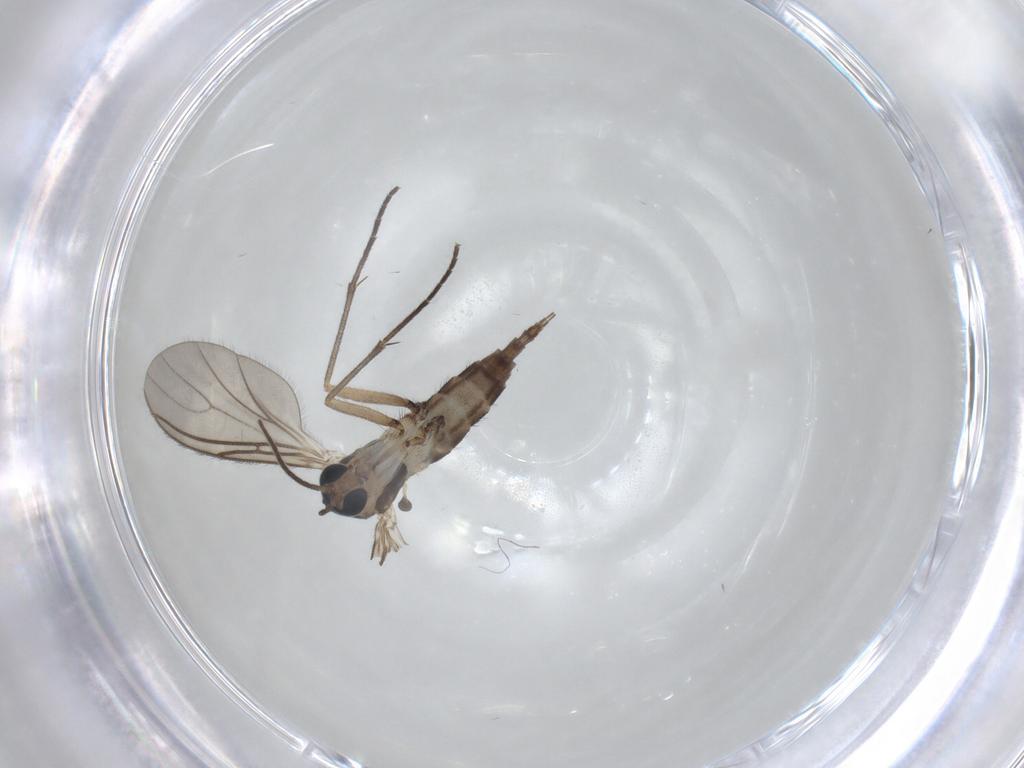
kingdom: Animalia
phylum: Arthropoda
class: Insecta
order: Diptera
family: Sciaridae
